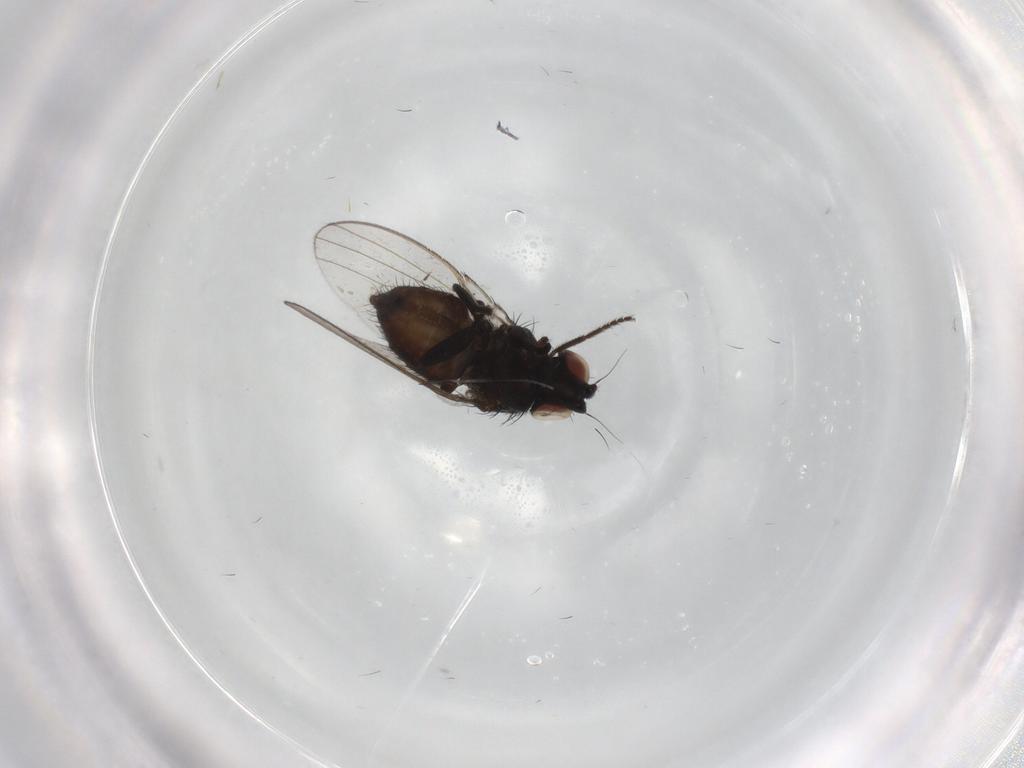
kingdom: Animalia
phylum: Arthropoda
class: Insecta
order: Diptera
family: Milichiidae
